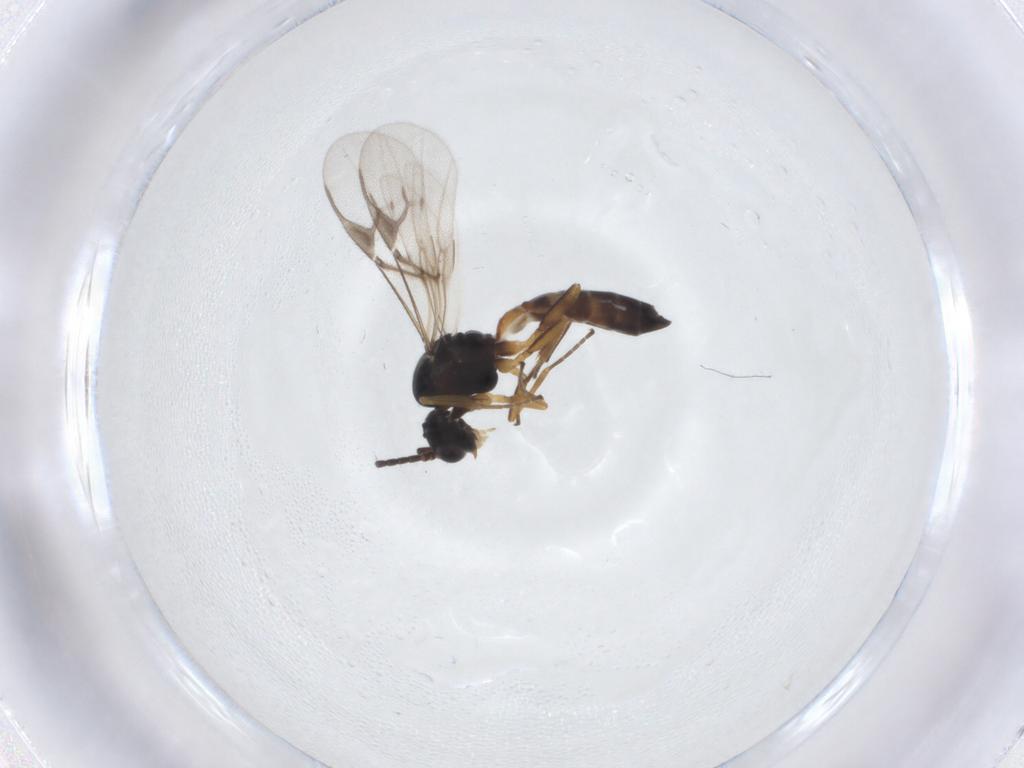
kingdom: Animalia
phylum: Arthropoda
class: Insecta
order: Hymenoptera
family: Braconidae
